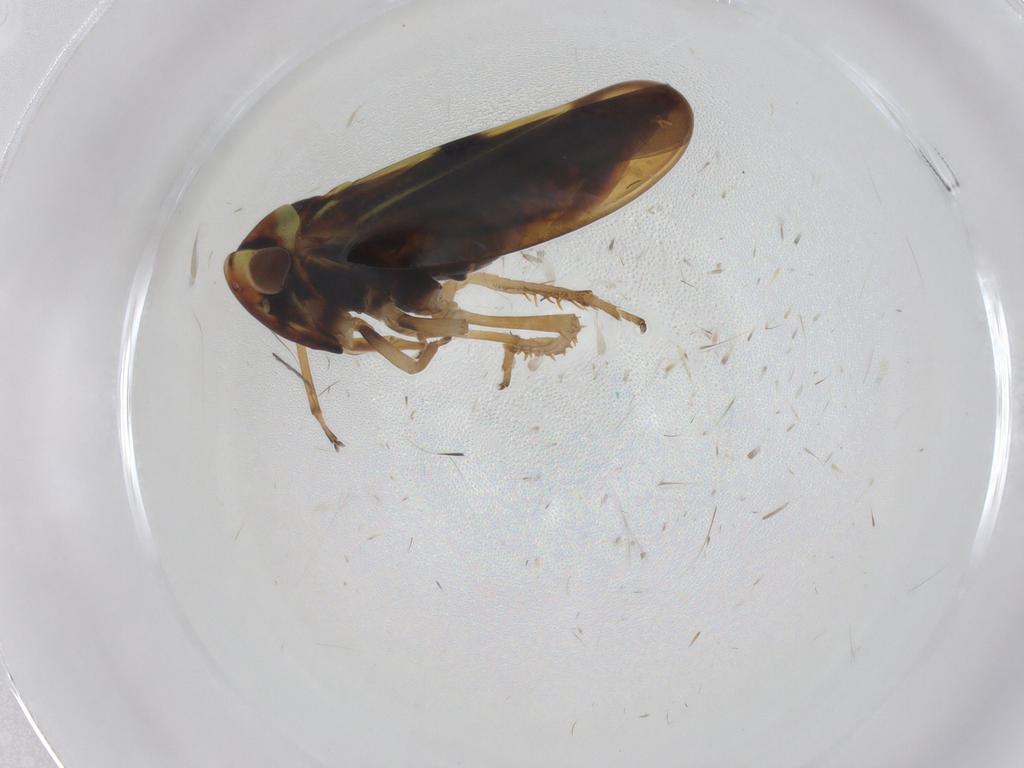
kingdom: Animalia
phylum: Arthropoda
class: Insecta
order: Hemiptera
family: Cicadellidae
